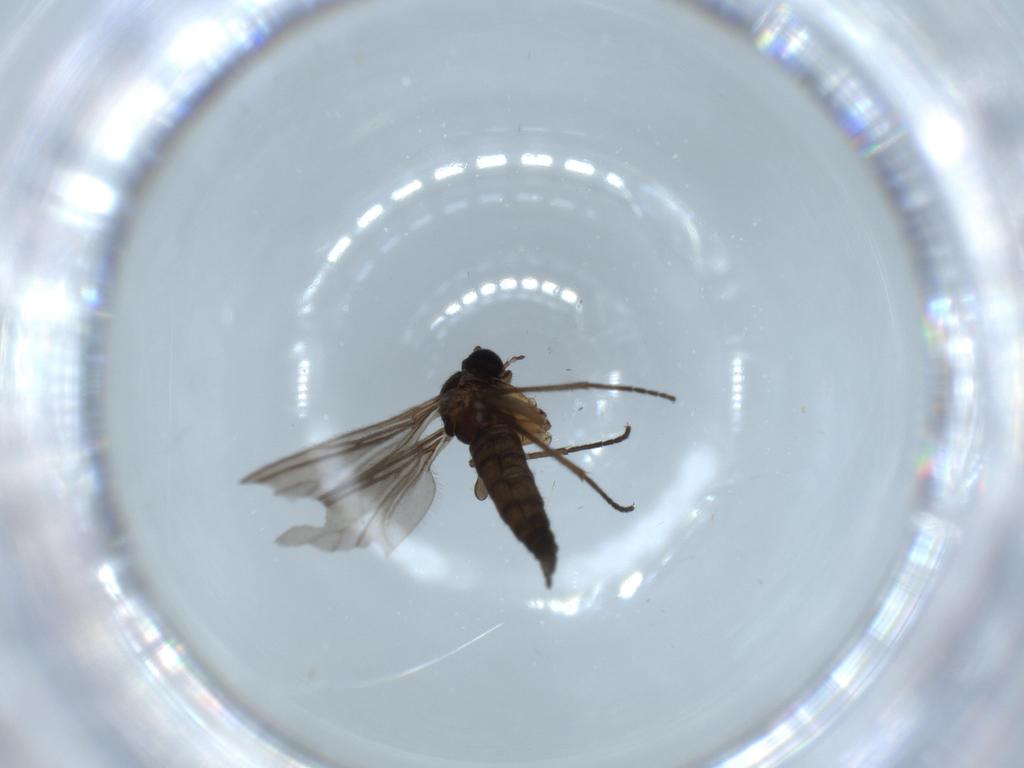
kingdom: Animalia
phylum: Arthropoda
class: Insecta
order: Diptera
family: Sciaridae
